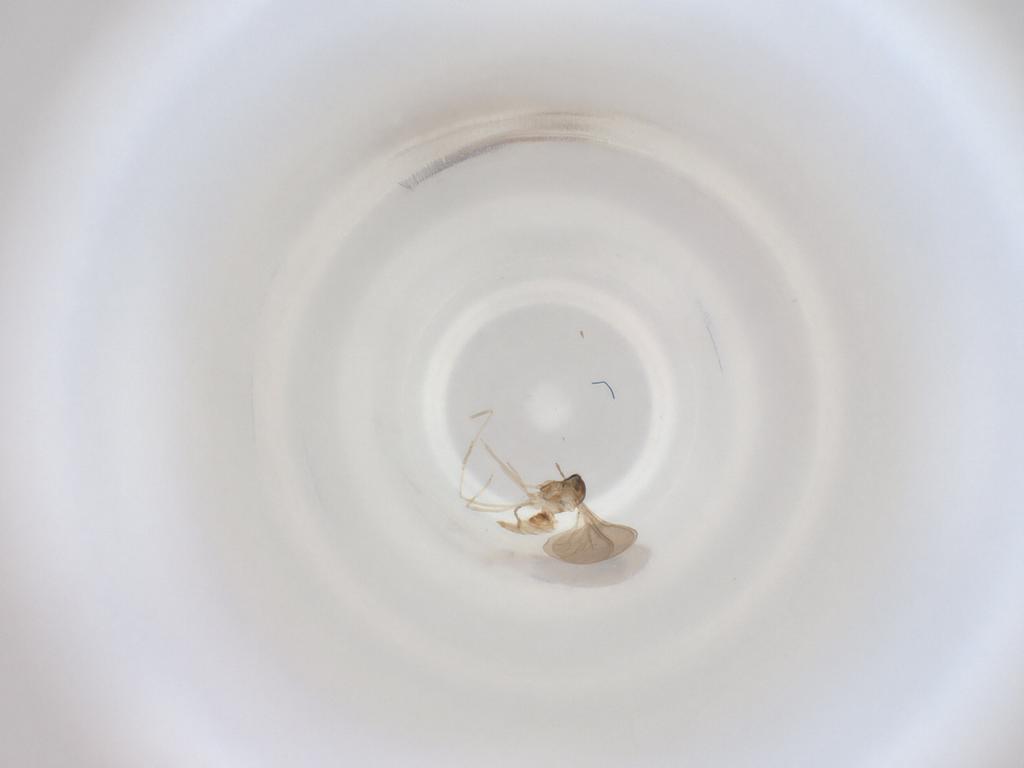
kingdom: Animalia
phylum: Arthropoda
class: Insecta
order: Diptera
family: Cecidomyiidae
